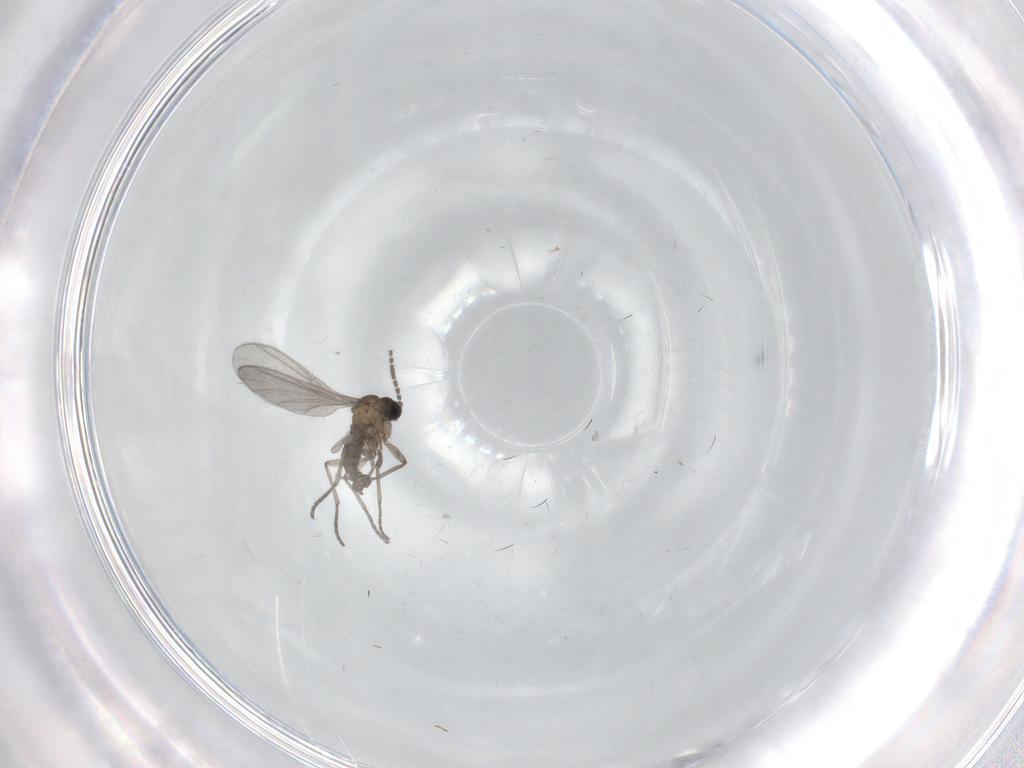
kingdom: Animalia
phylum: Arthropoda
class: Insecta
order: Diptera
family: Sciaridae
